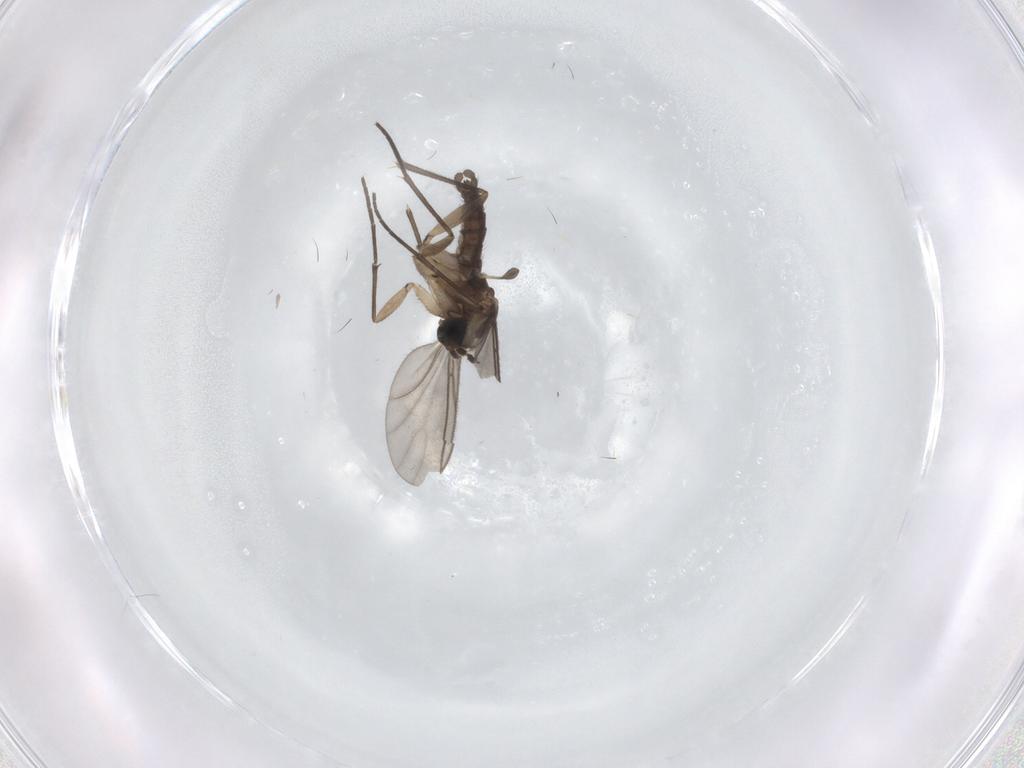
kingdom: Animalia
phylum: Arthropoda
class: Insecta
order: Diptera
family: Sciaridae
